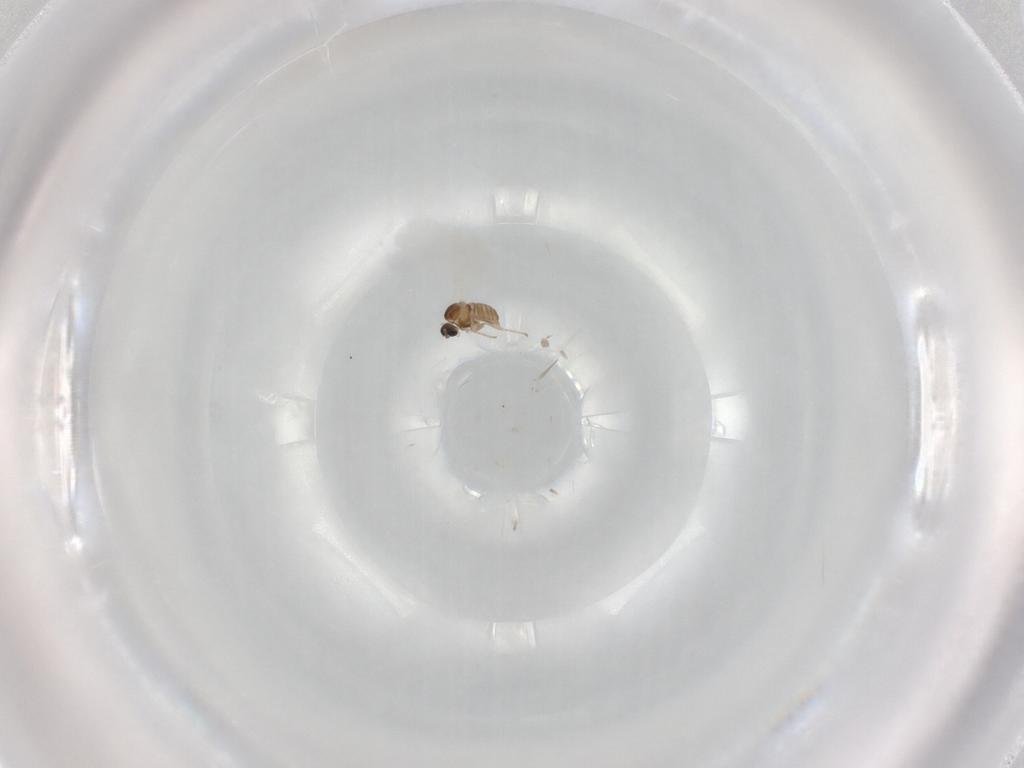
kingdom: Animalia
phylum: Arthropoda
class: Insecta
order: Diptera
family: Cecidomyiidae
